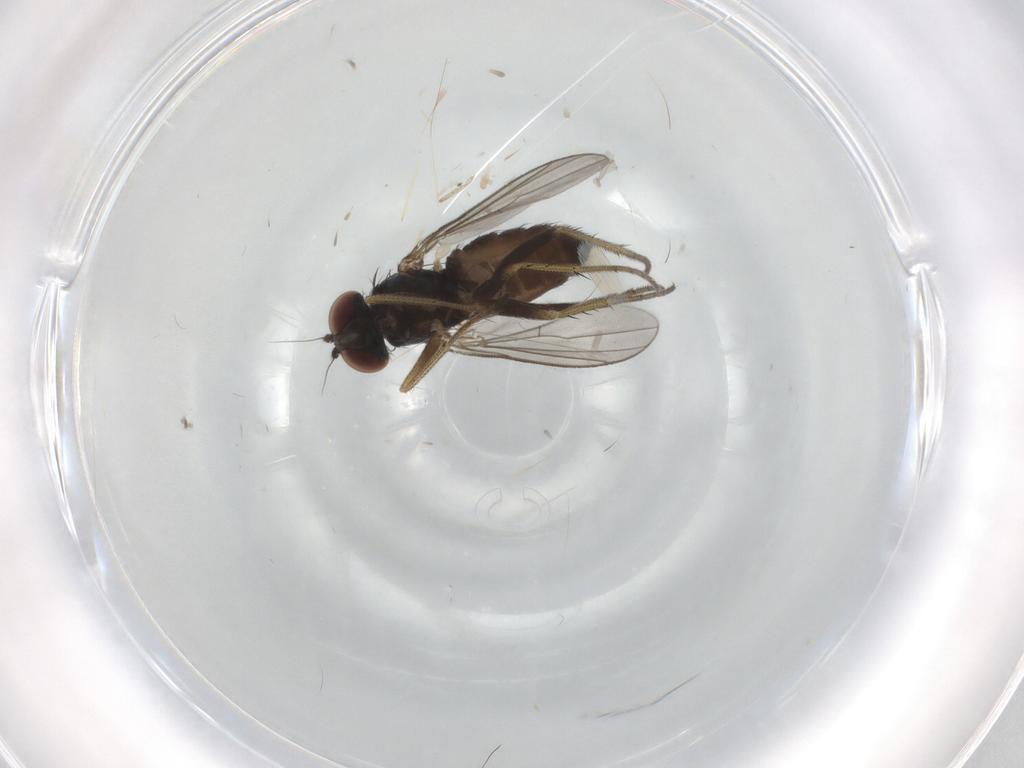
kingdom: Animalia
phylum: Arthropoda
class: Insecta
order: Diptera
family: Dolichopodidae
